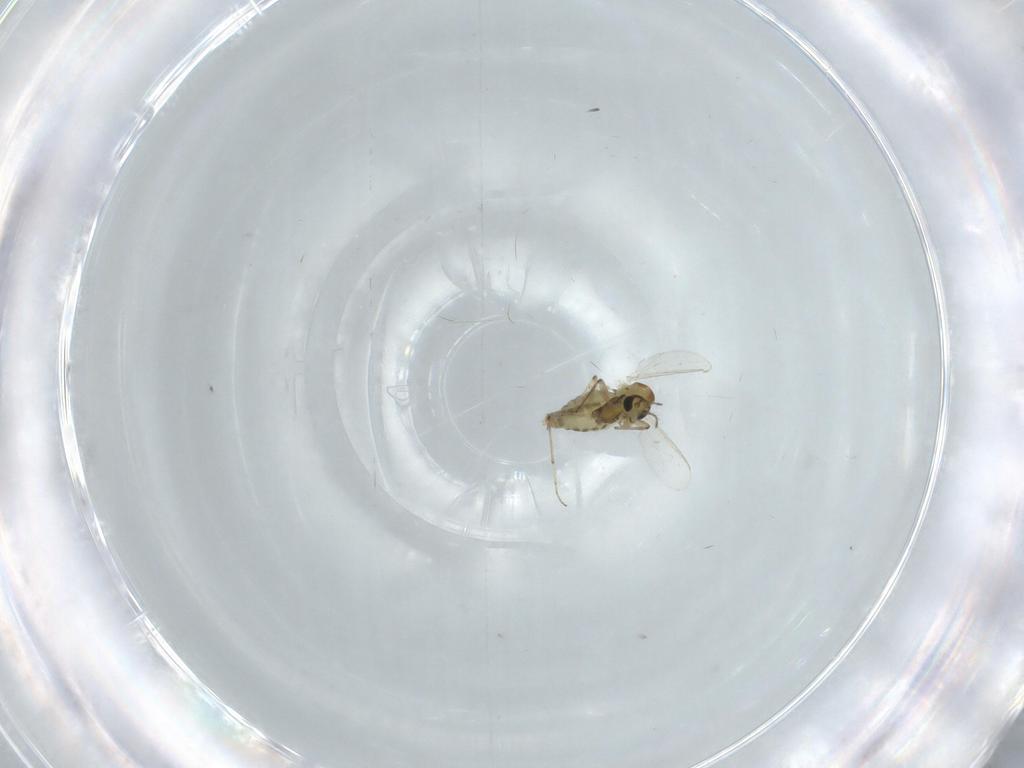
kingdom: Animalia
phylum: Arthropoda
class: Insecta
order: Diptera
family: Chironomidae
